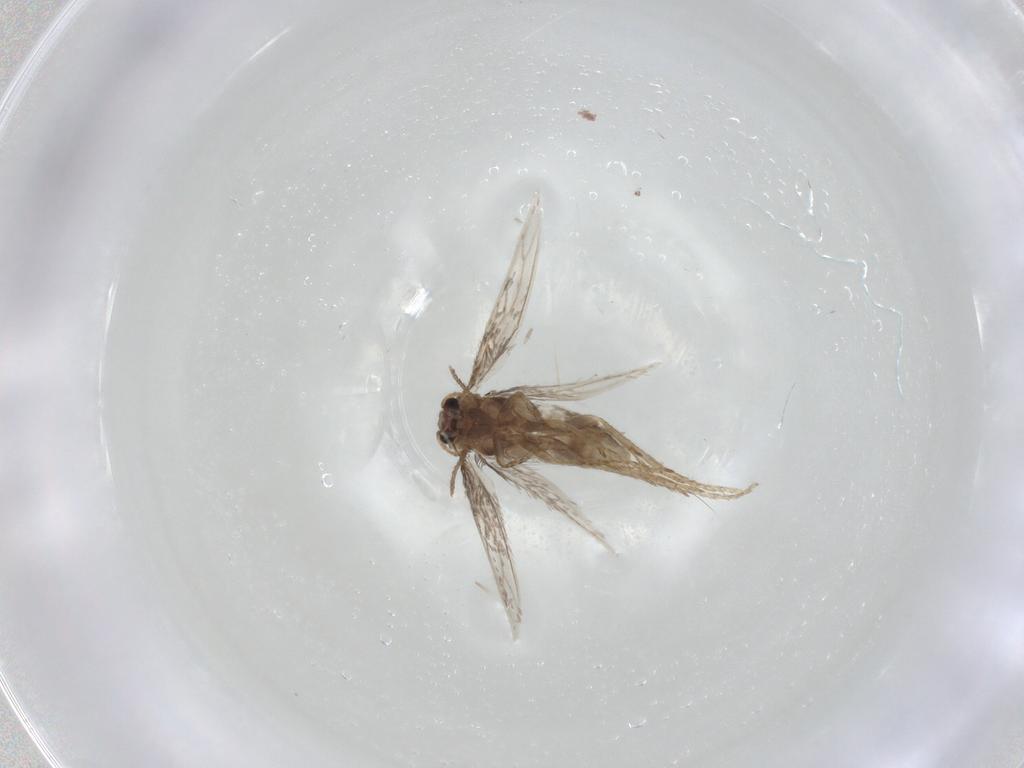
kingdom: Animalia
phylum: Arthropoda
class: Insecta
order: Lepidoptera
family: Nepticulidae
